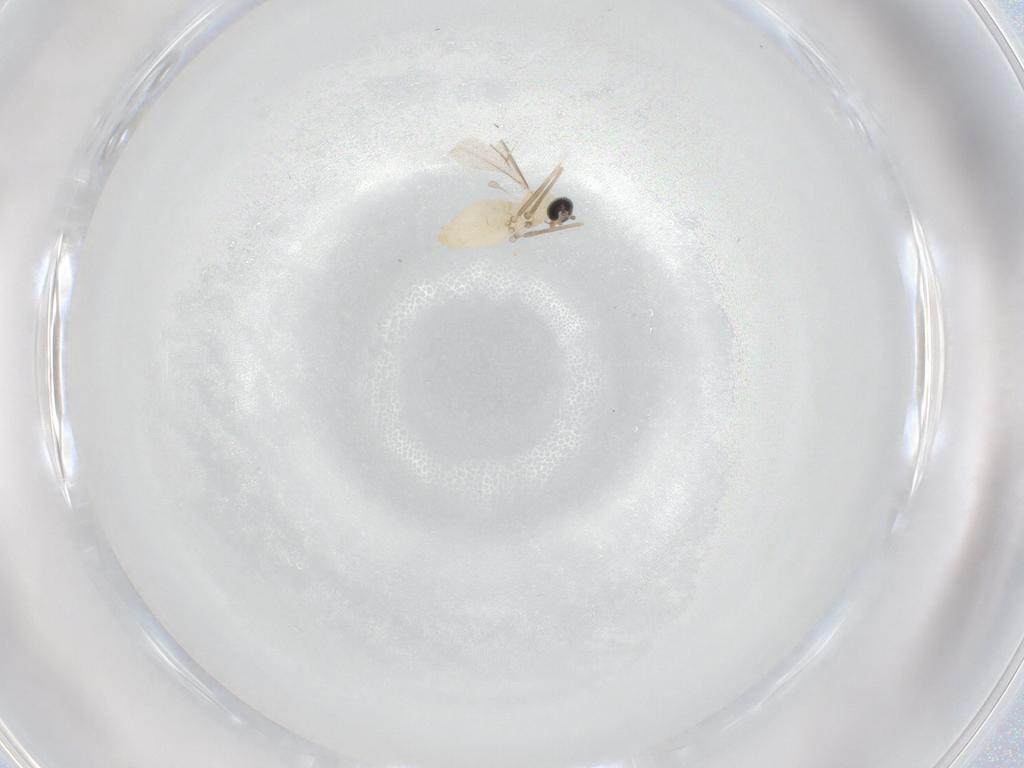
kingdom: Animalia
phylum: Arthropoda
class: Insecta
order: Diptera
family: Cecidomyiidae
